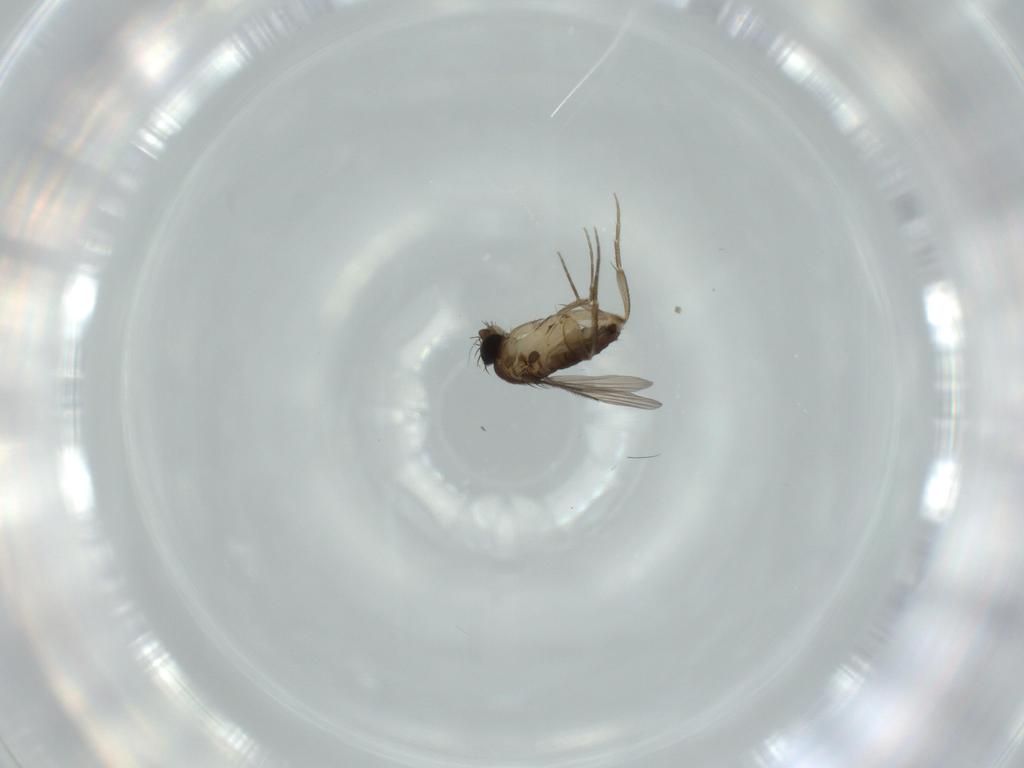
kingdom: Animalia
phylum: Arthropoda
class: Insecta
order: Diptera
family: Phoridae
